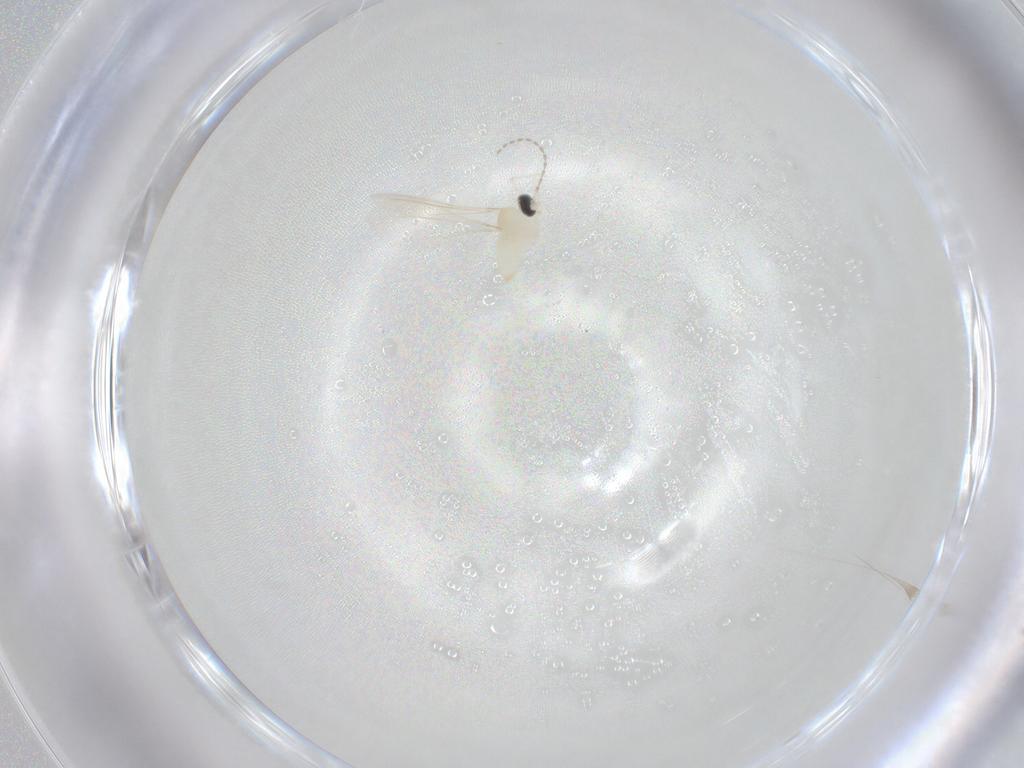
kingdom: Animalia
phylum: Arthropoda
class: Insecta
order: Diptera
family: Cecidomyiidae
